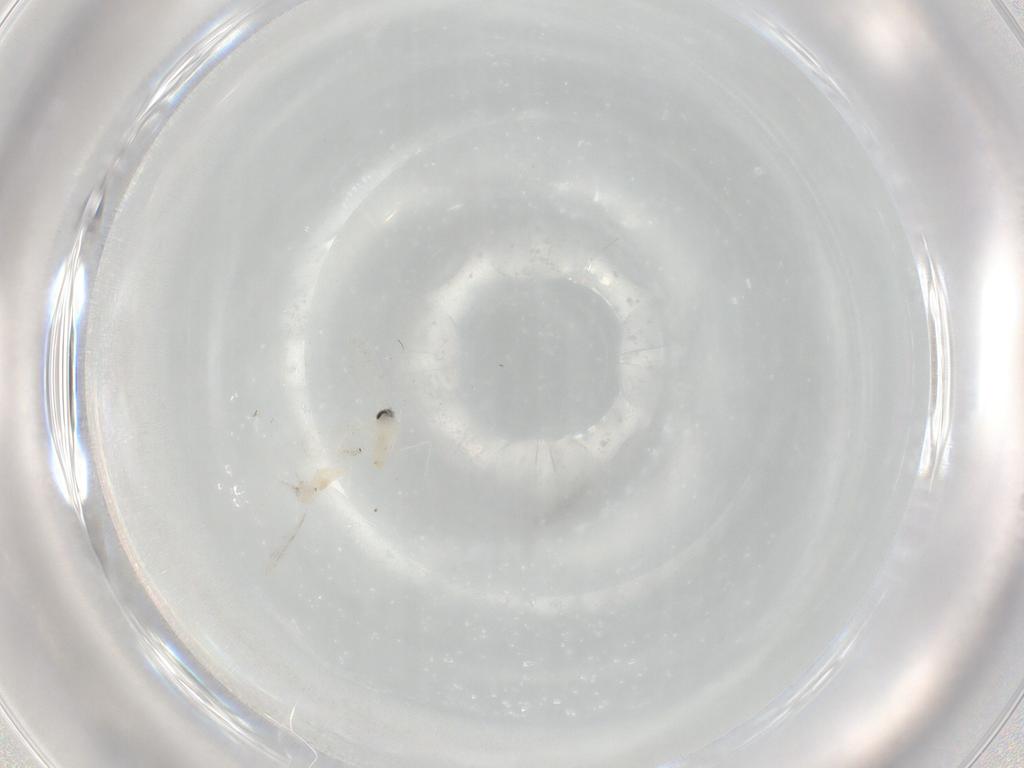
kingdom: Animalia
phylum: Arthropoda
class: Insecta
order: Diptera
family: Cecidomyiidae
